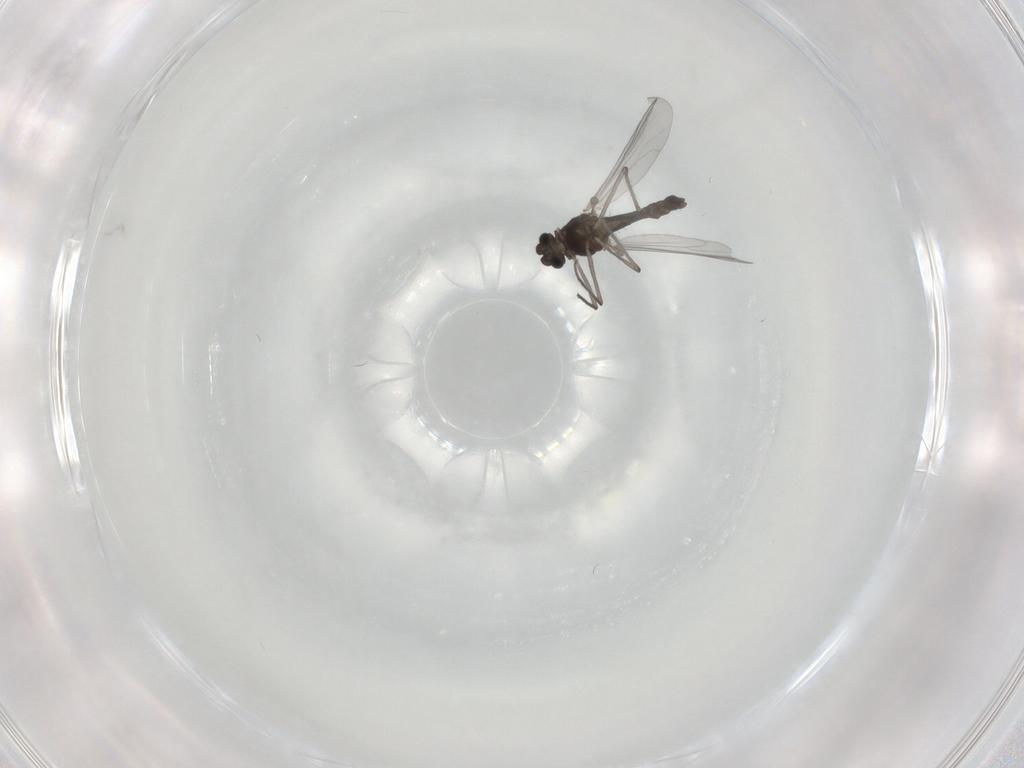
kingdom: Animalia
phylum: Arthropoda
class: Insecta
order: Diptera
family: Chironomidae
